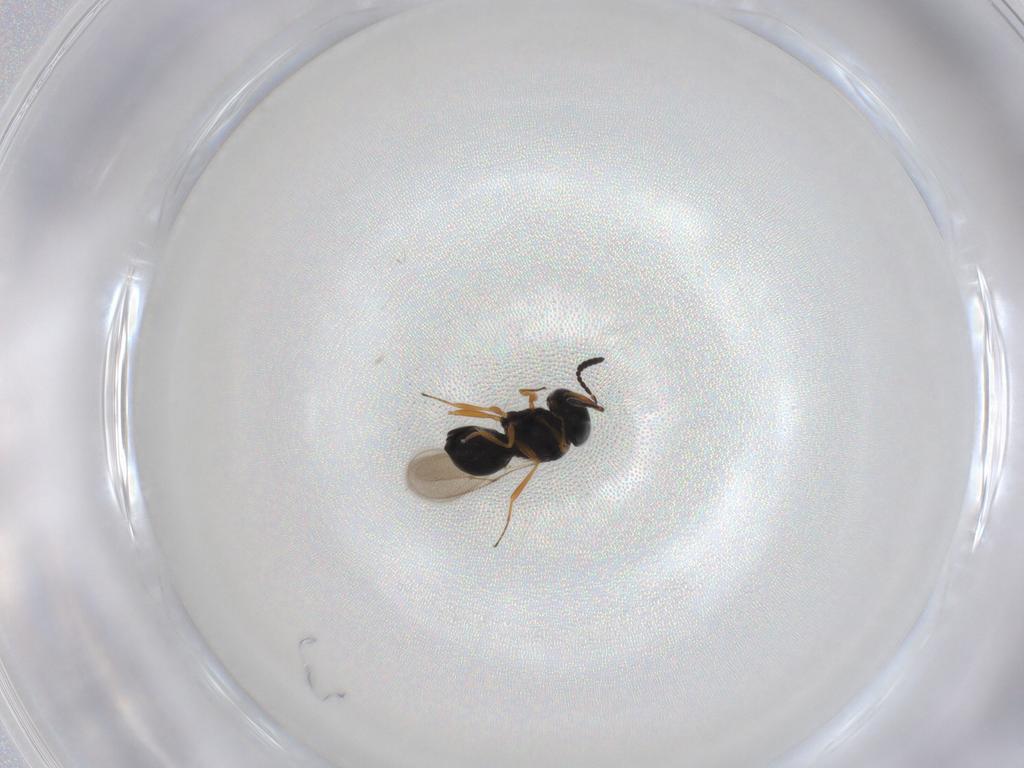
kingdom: Animalia
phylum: Arthropoda
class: Insecta
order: Hymenoptera
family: Scelionidae
